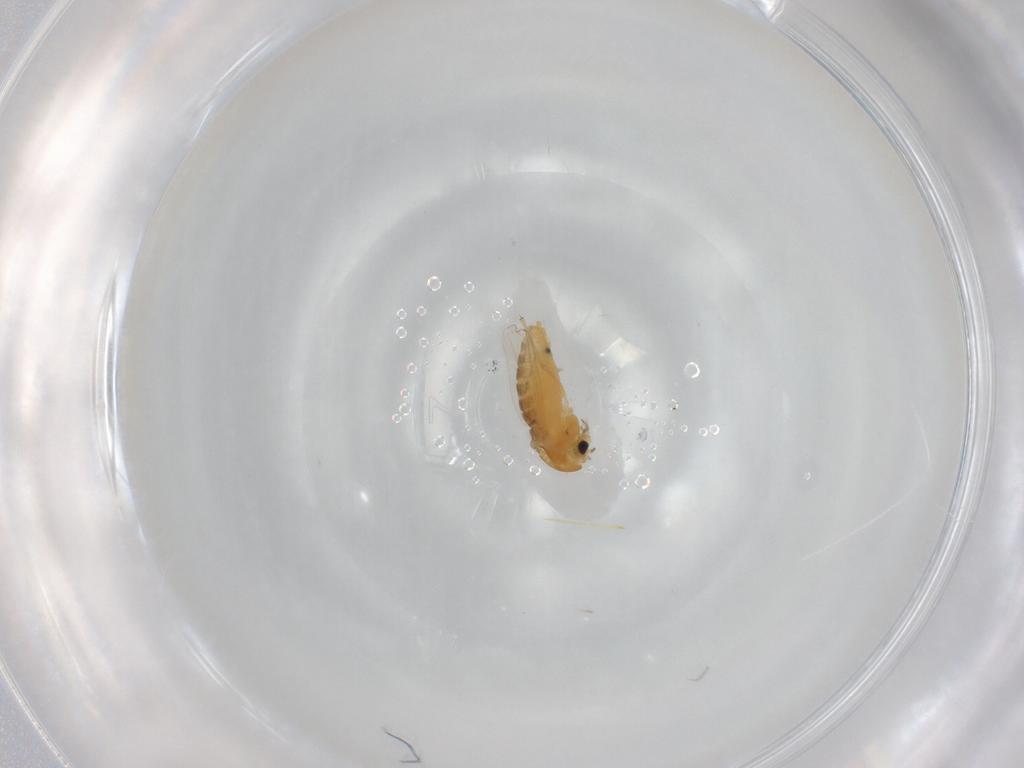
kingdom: Animalia
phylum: Arthropoda
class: Insecta
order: Diptera
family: Chironomidae
